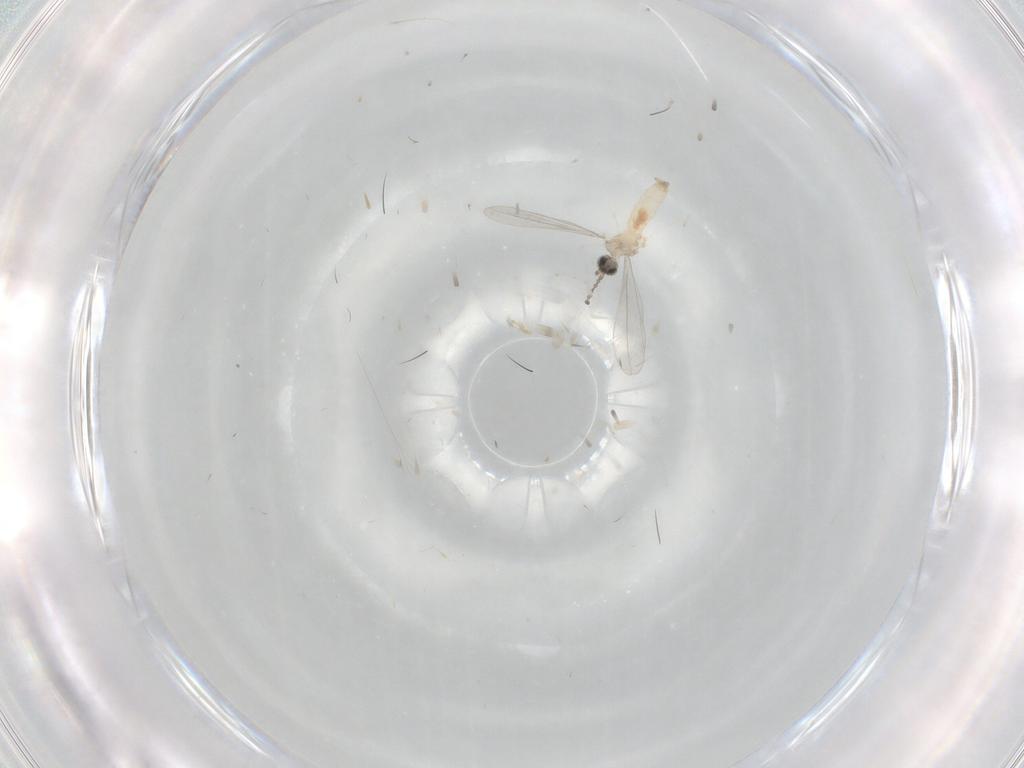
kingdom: Animalia
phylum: Arthropoda
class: Insecta
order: Diptera
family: Cecidomyiidae
